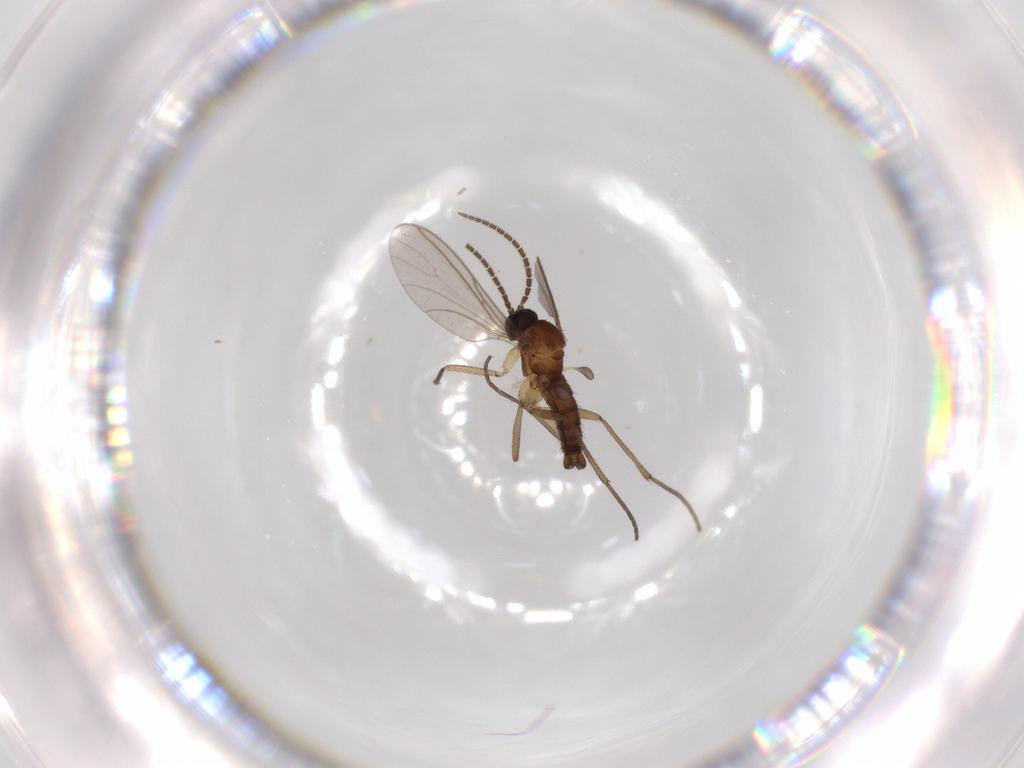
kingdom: Animalia
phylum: Arthropoda
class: Insecta
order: Diptera
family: Sciaridae
